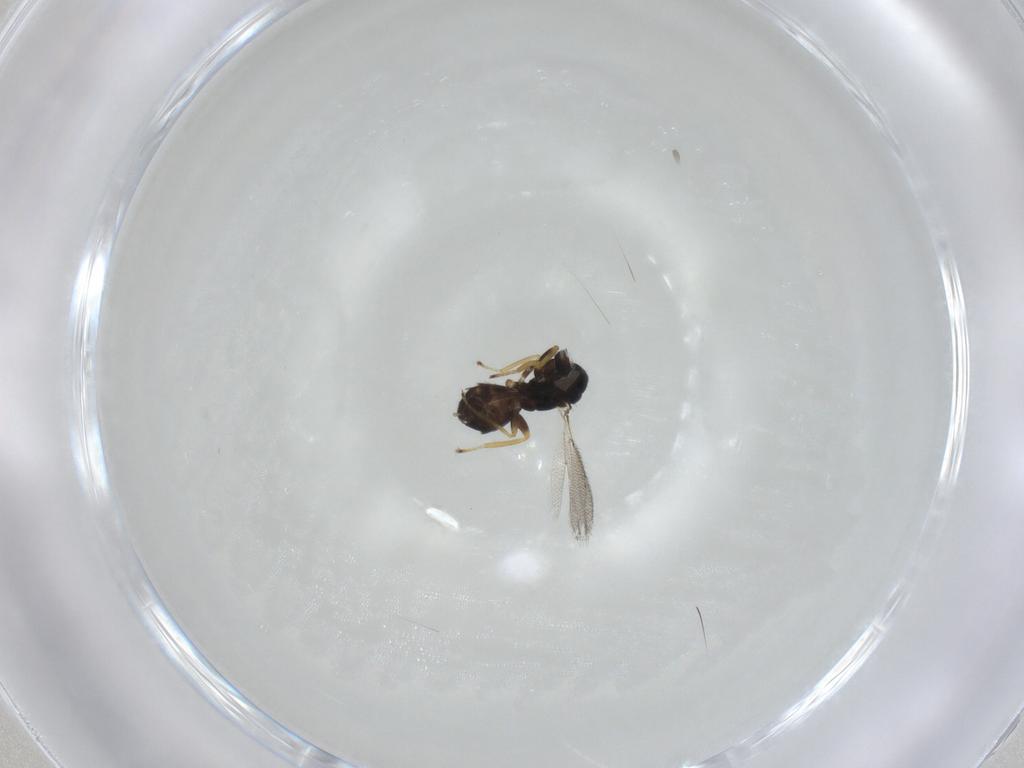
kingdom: Animalia
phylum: Arthropoda
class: Insecta
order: Hymenoptera
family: Eulophidae
